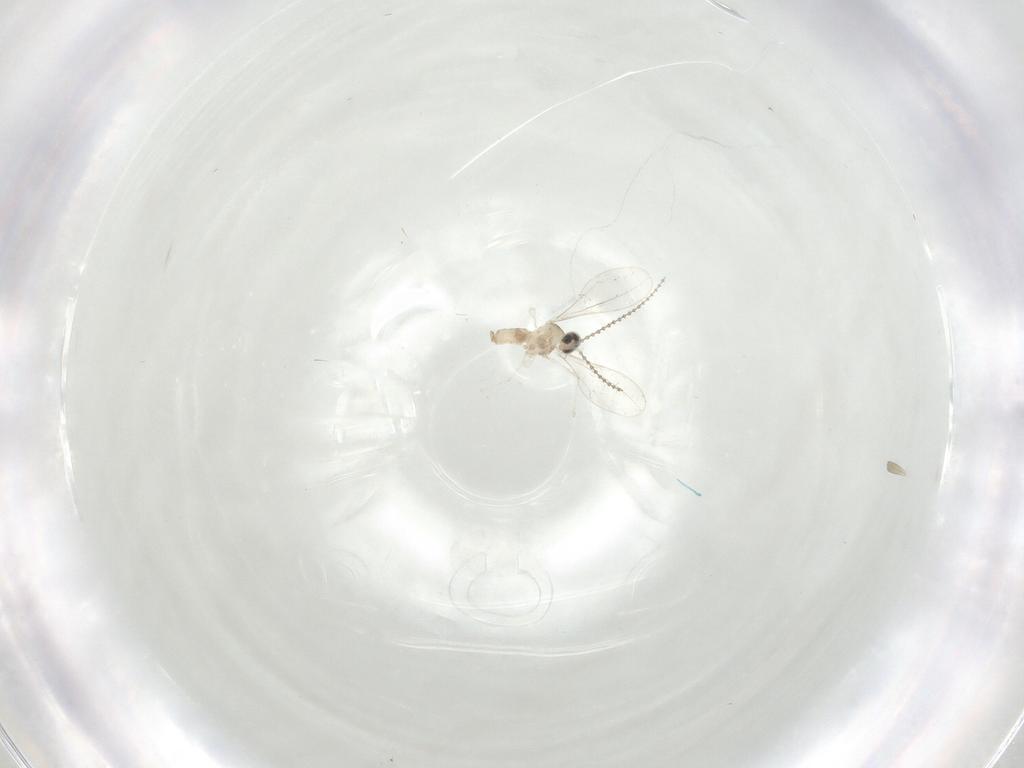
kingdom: Animalia
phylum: Arthropoda
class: Insecta
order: Diptera
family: Cecidomyiidae
